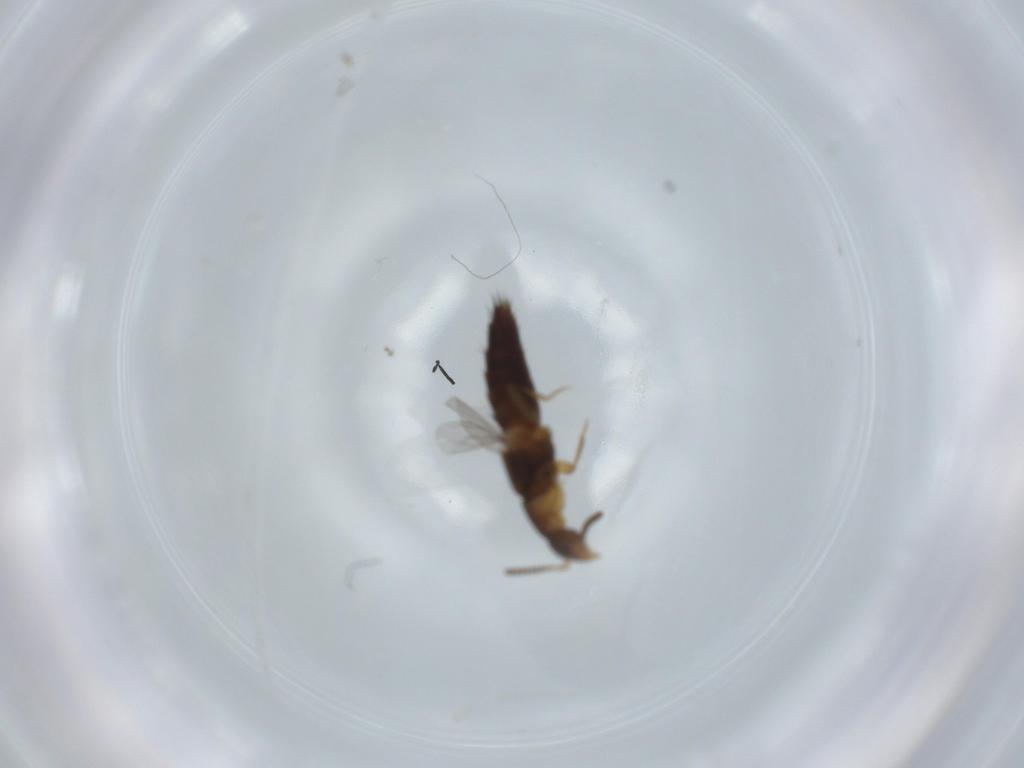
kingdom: Animalia
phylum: Arthropoda
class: Insecta
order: Coleoptera
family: Staphylinidae
